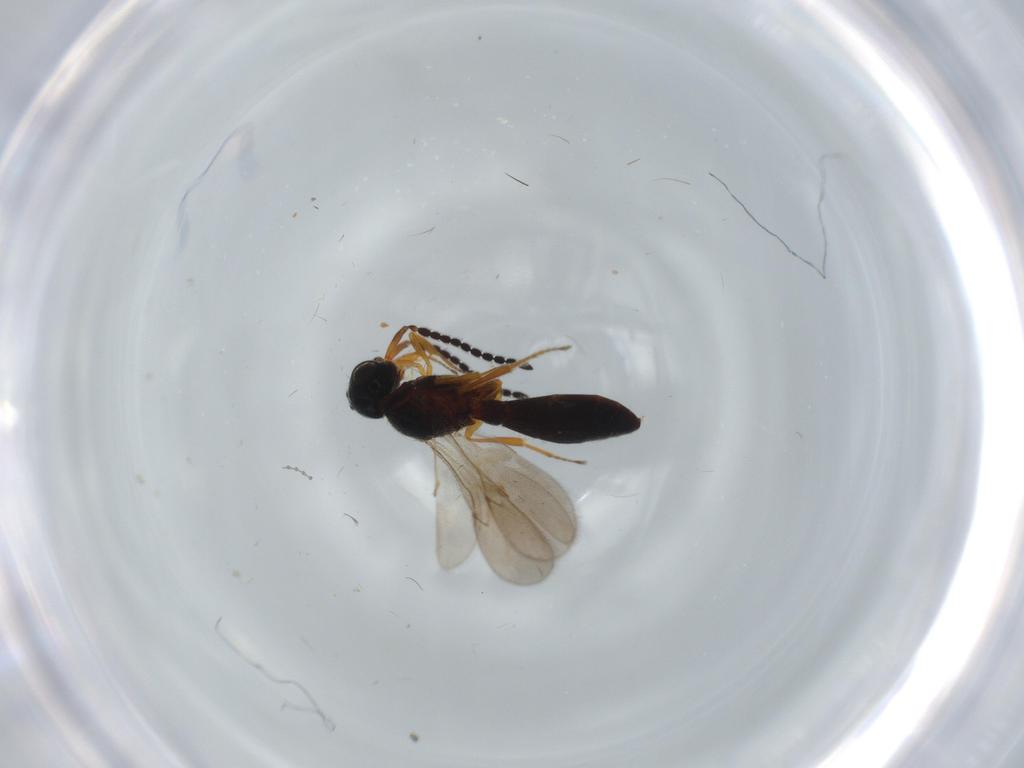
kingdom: Animalia
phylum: Arthropoda
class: Insecta
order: Hymenoptera
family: Scelionidae
